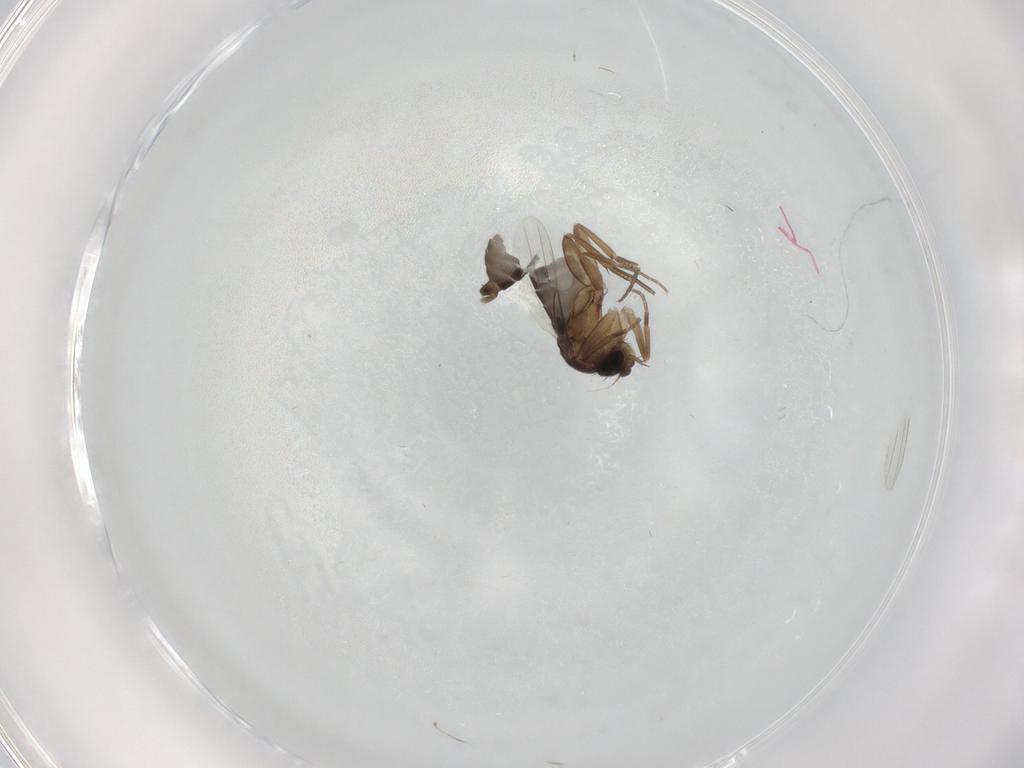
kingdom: Animalia
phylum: Arthropoda
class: Insecta
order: Diptera
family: Phoridae
